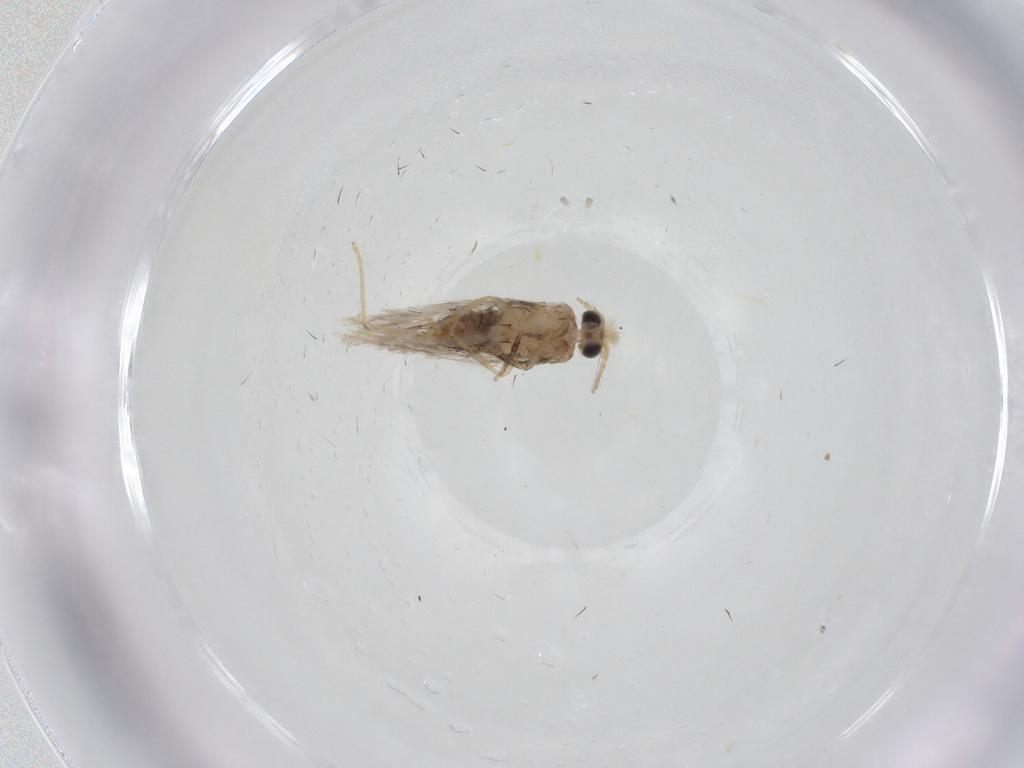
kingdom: Animalia
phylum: Arthropoda
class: Insecta
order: Lepidoptera
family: Nepticulidae
